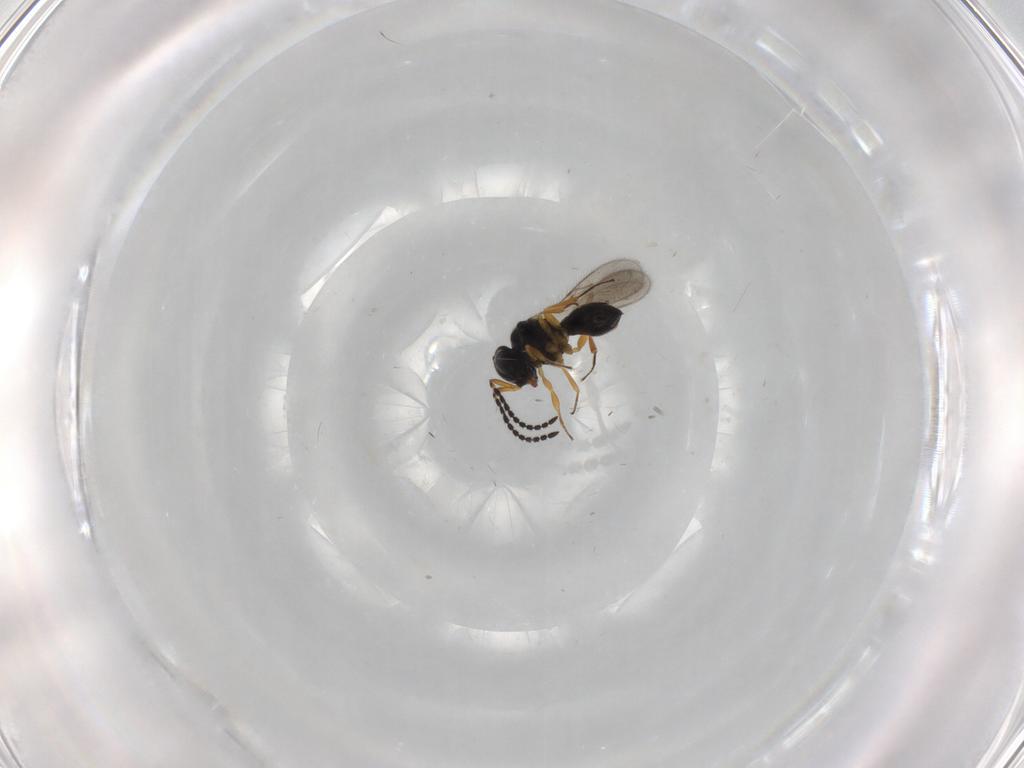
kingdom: Animalia
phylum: Arthropoda
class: Insecta
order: Hymenoptera
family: Scelionidae
